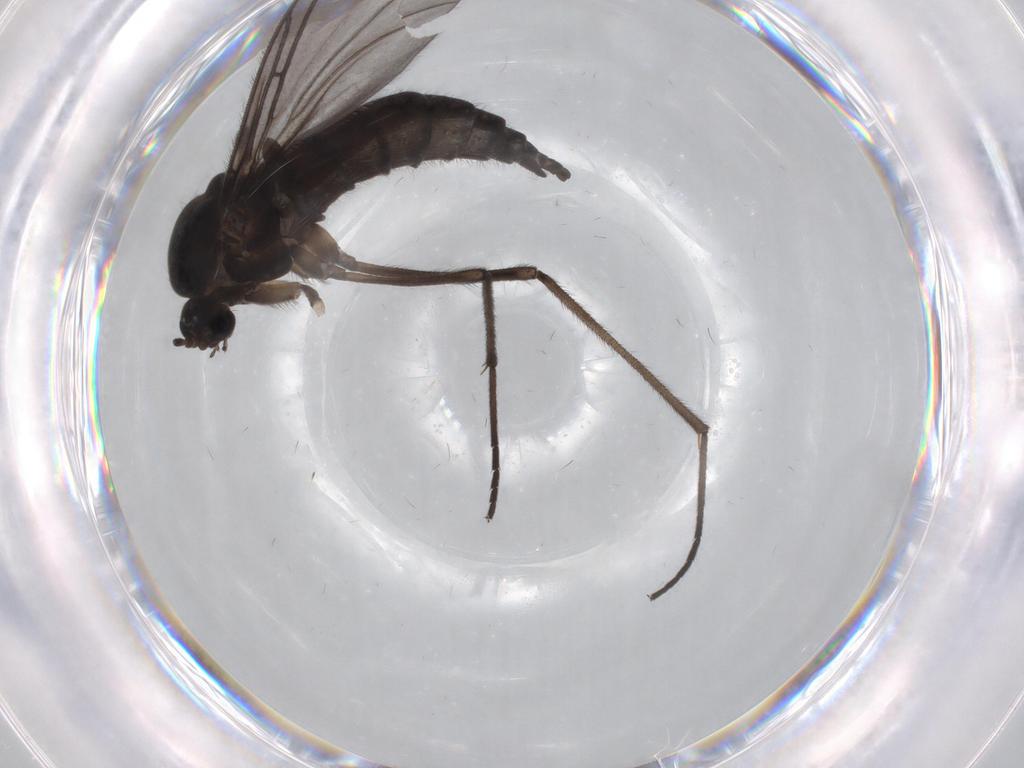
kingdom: Animalia
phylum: Arthropoda
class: Insecta
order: Diptera
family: Sciaridae
